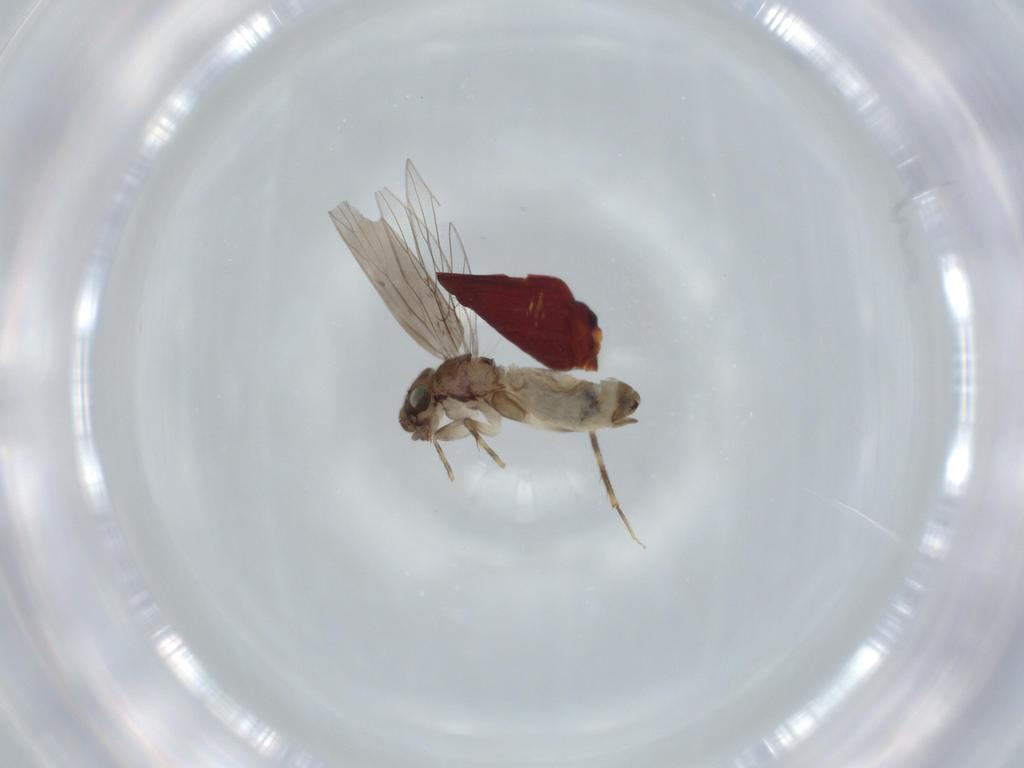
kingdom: Animalia
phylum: Arthropoda
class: Insecta
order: Psocodea
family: Lepidopsocidae
